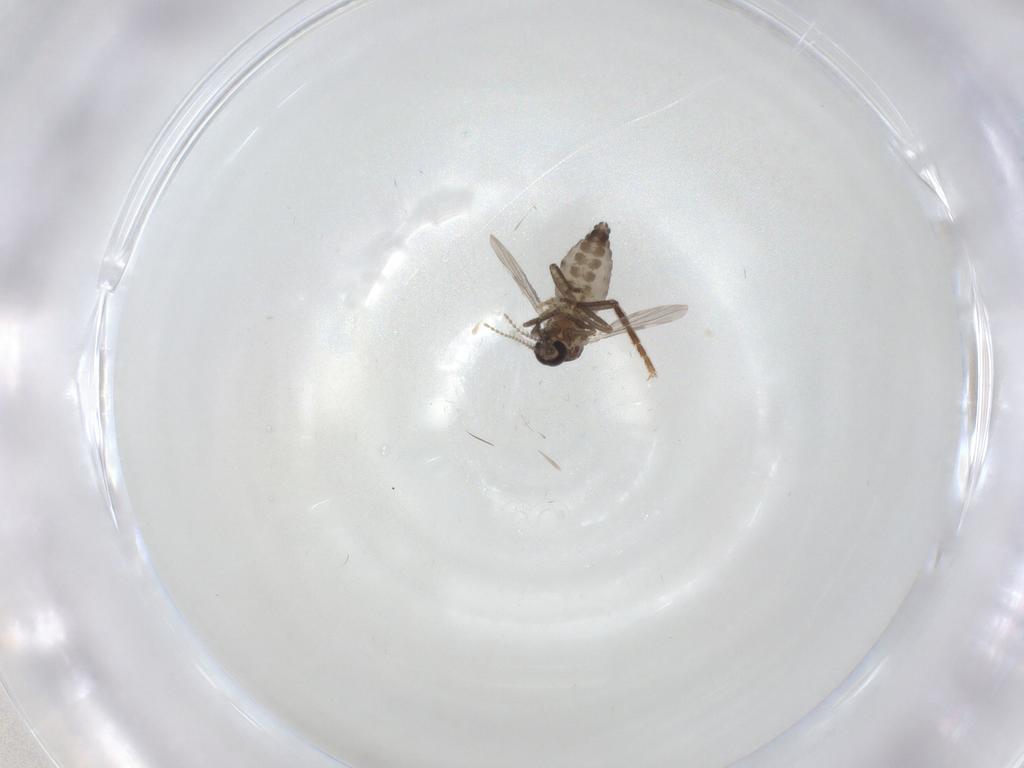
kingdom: Animalia
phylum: Arthropoda
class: Insecta
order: Diptera
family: Ceratopogonidae
